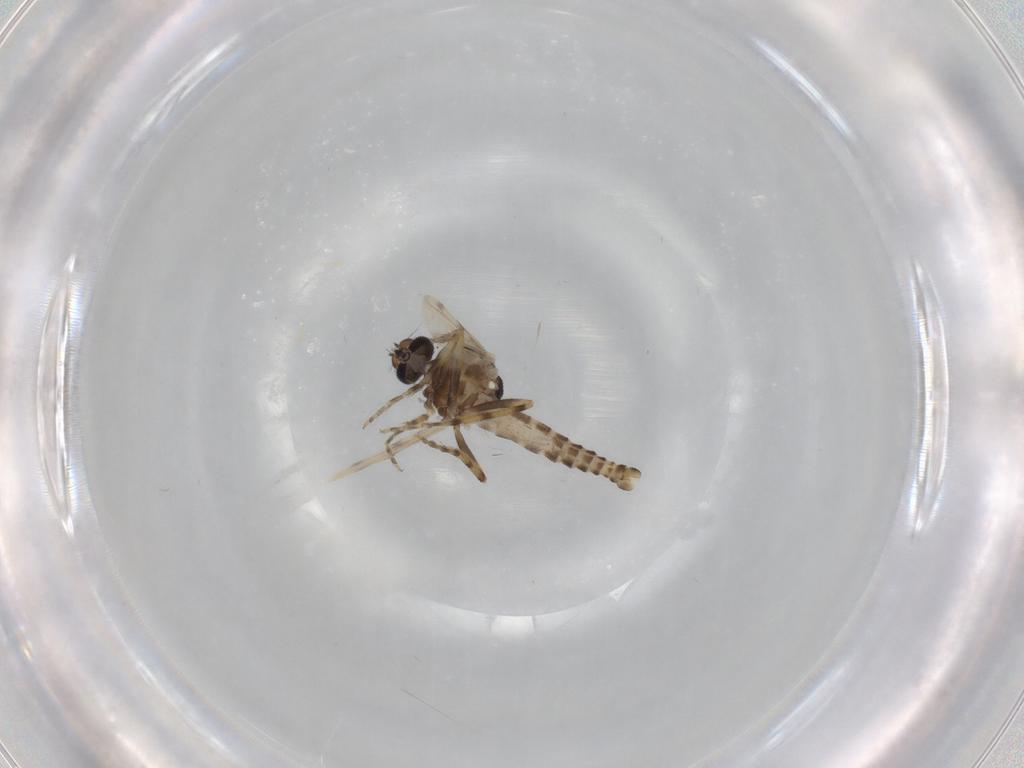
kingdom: Animalia
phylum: Arthropoda
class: Insecta
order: Diptera
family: Ceratopogonidae
